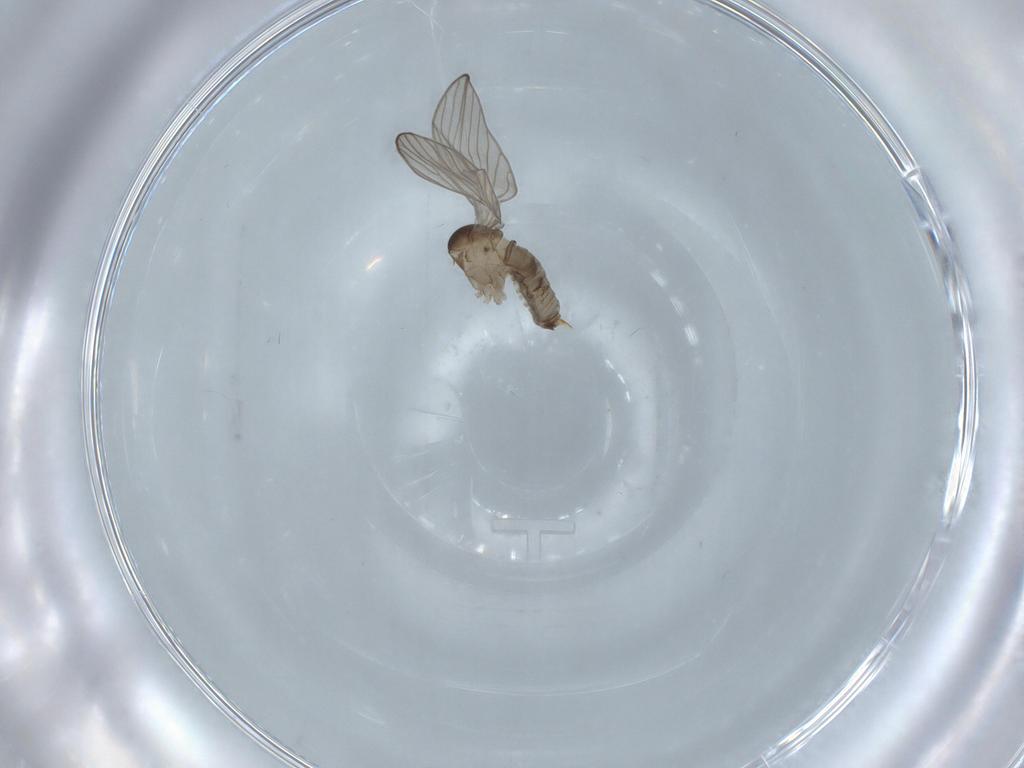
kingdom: Animalia
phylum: Arthropoda
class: Insecta
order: Diptera
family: Psychodidae
